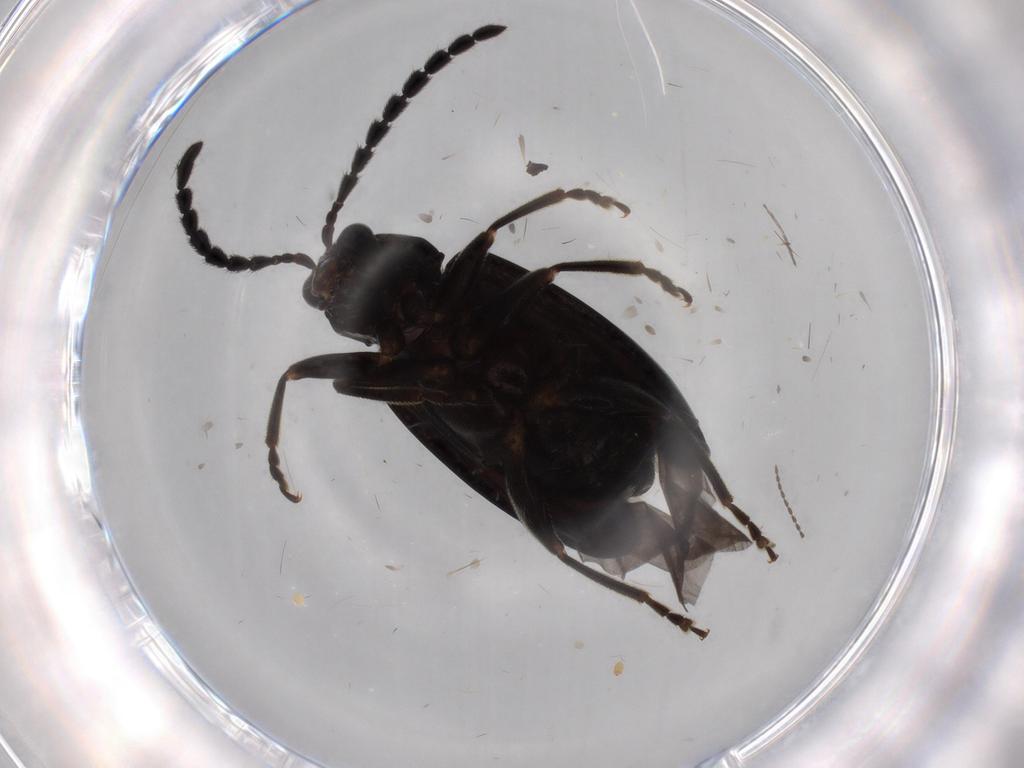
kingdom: Animalia
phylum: Arthropoda
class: Insecta
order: Coleoptera
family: Chrysomelidae
